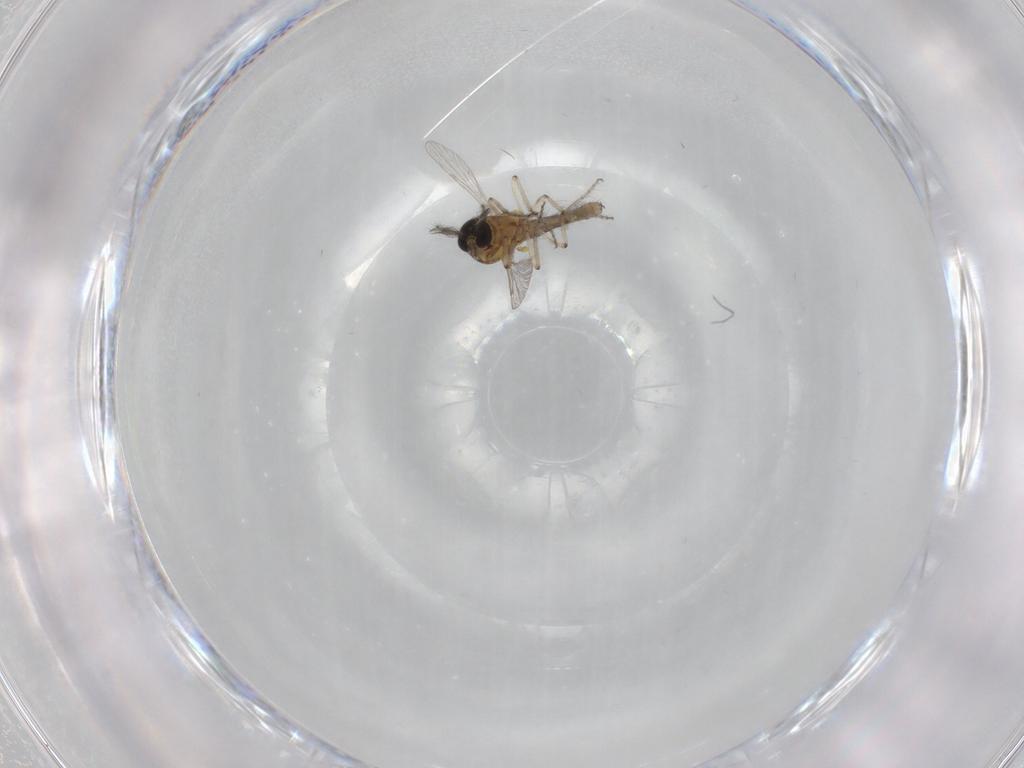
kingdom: Animalia
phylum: Arthropoda
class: Insecta
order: Diptera
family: Ceratopogonidae
